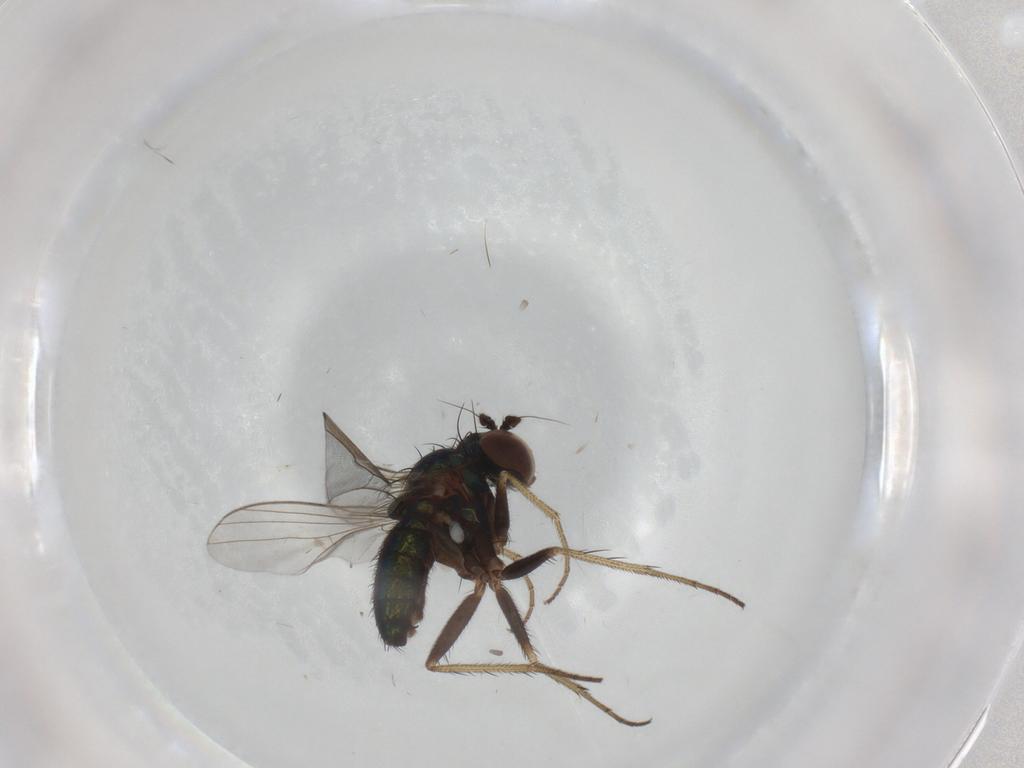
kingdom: Animalia
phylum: Arthropoda
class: Insecta
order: Diptera
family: Dolichopodidae
